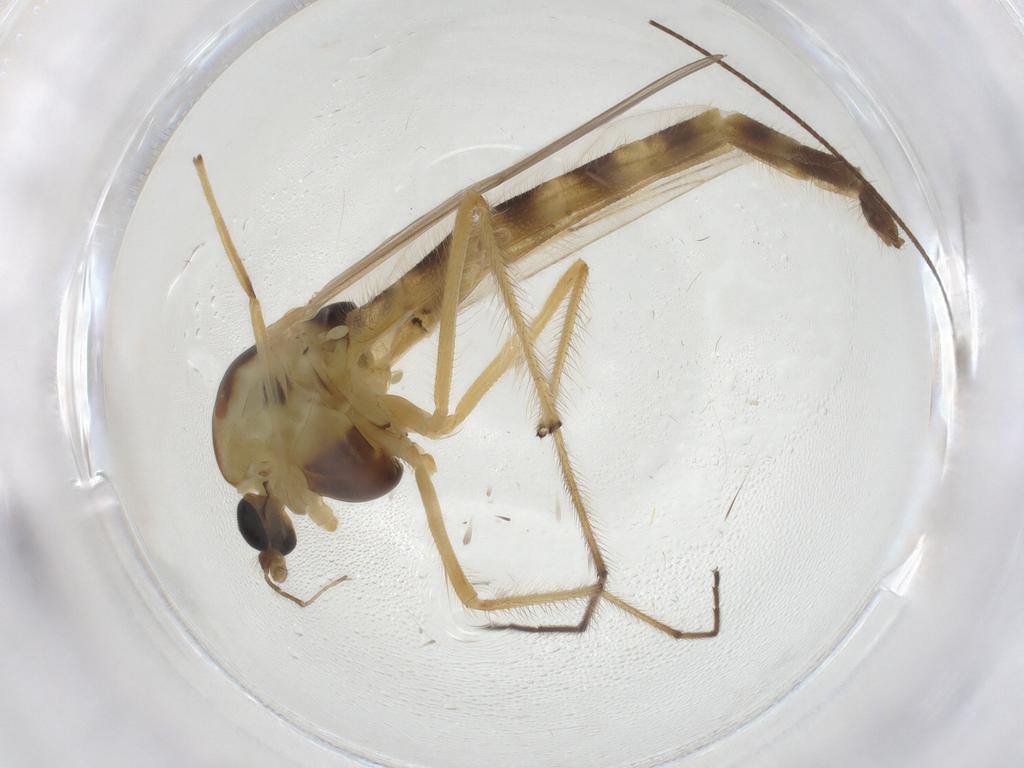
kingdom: Animalia
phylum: Arthropoda
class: Insecta
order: Diptera
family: Chironomidae
